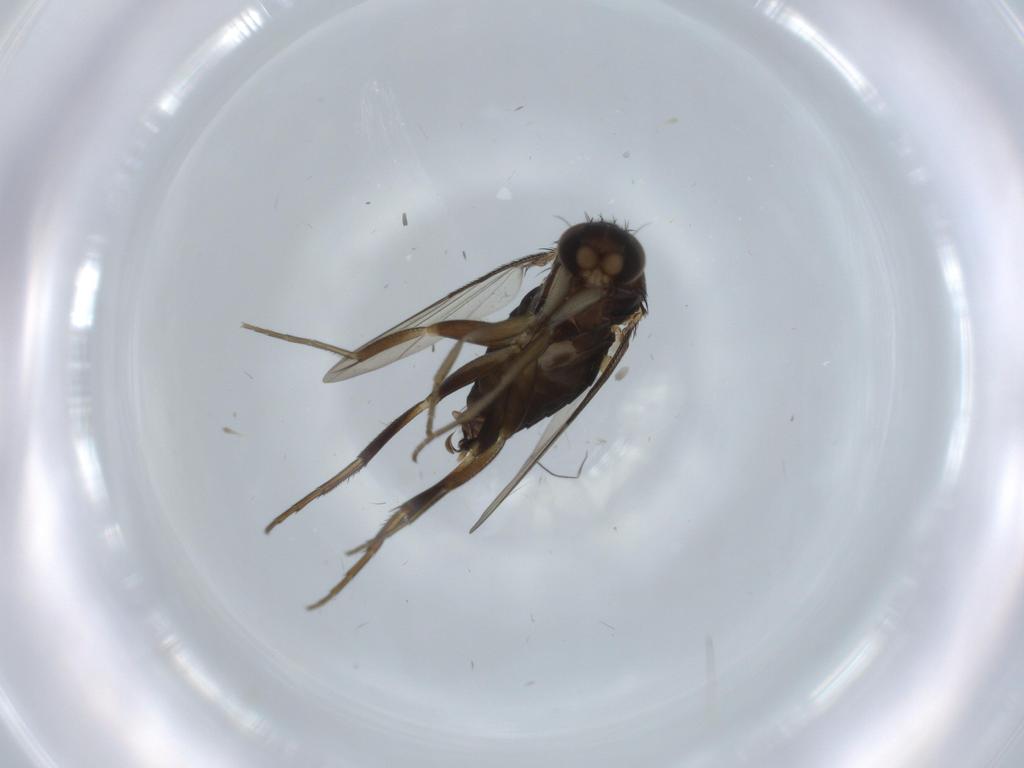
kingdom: Animalia
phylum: Arthropoda
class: Insecta
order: Diptera
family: Phoridae
